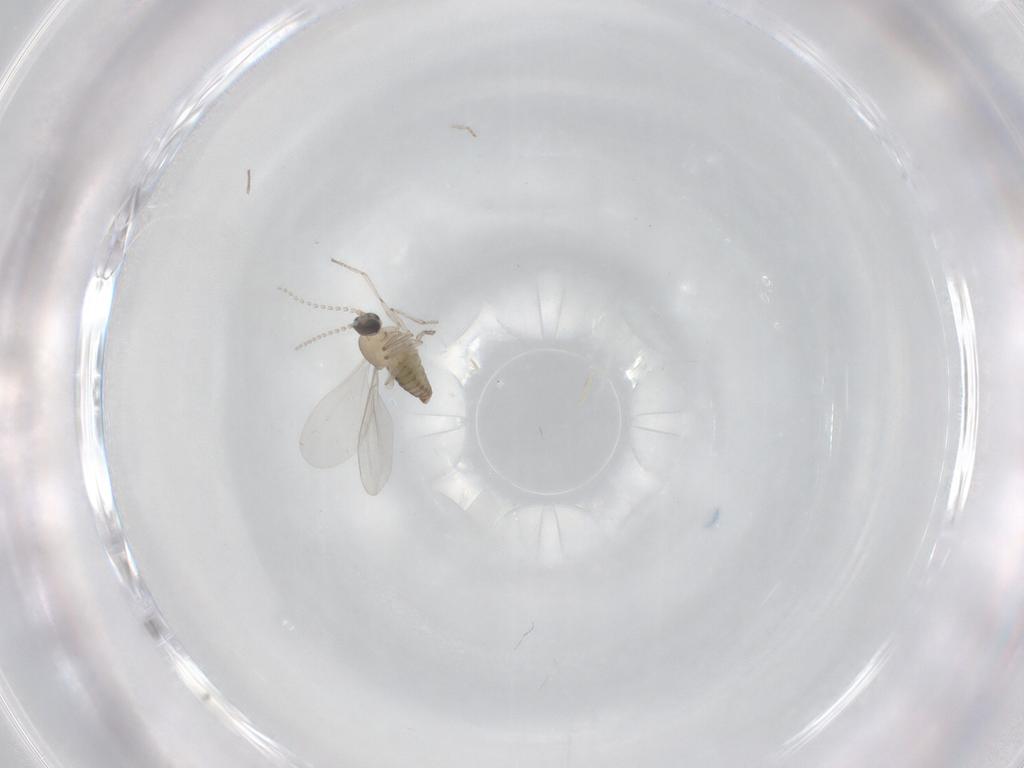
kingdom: Animalia
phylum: Arthropoda
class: Insecta
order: Diptera
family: Cecidomyiidae
